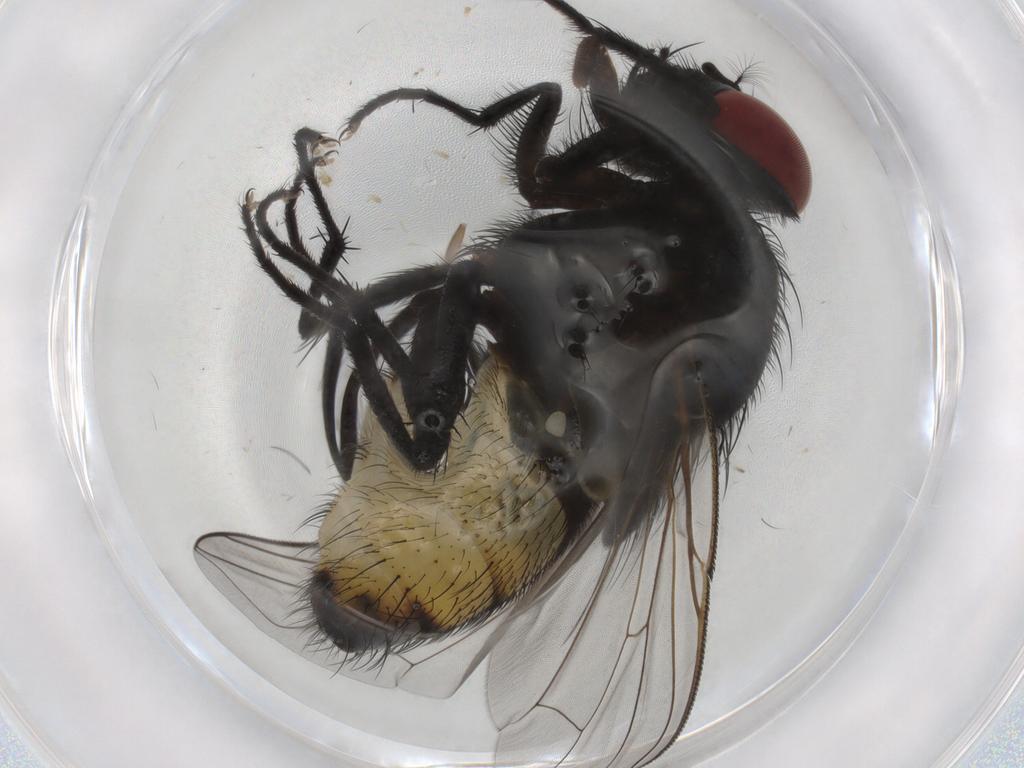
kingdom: Animalia
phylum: Arthropoda
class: Insecta
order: Diptera
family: Muscidae
